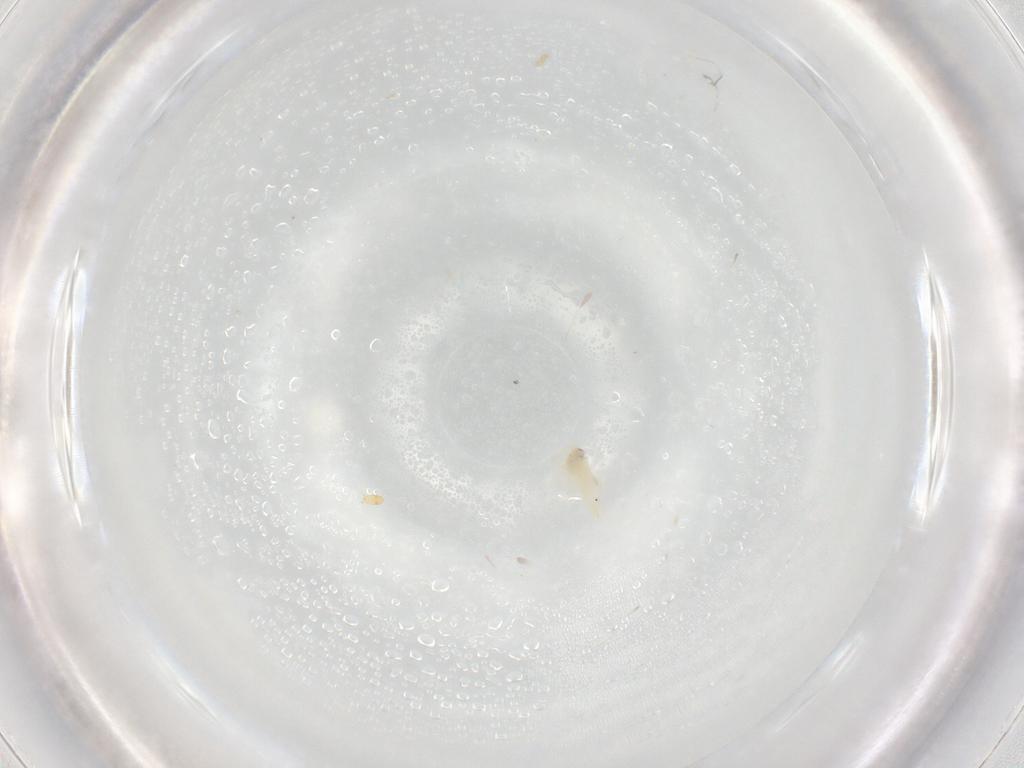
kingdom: Animalia
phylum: Arthropoda
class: Insecta
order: Hemiptera
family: Aleyrodidae
